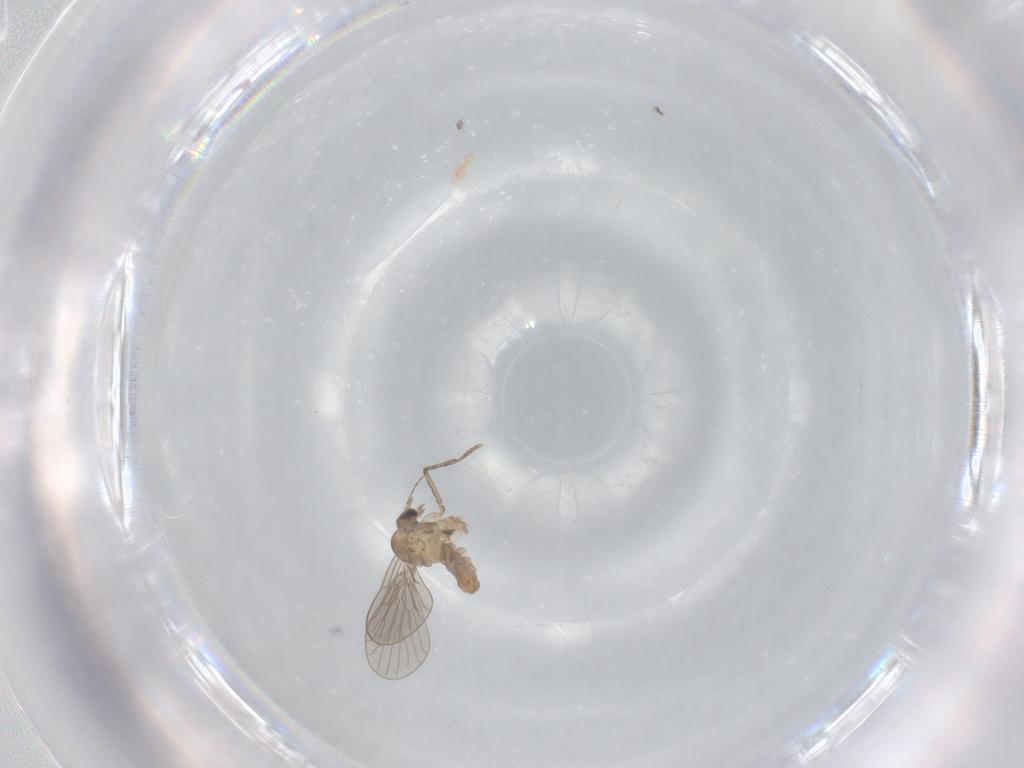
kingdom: Animalia
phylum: Arthropoda
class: Insecta
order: Diptera
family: Psychodidae
